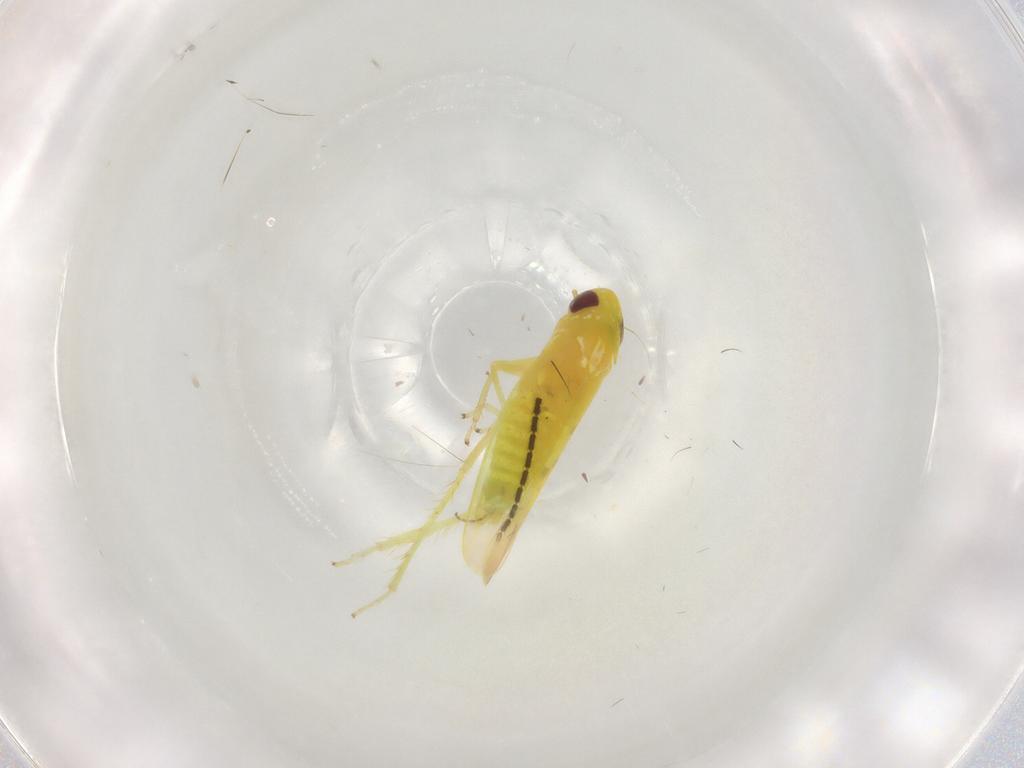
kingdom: Animalia
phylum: Arthropoda
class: Insecta
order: Hemiptera
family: Cicadellidae
